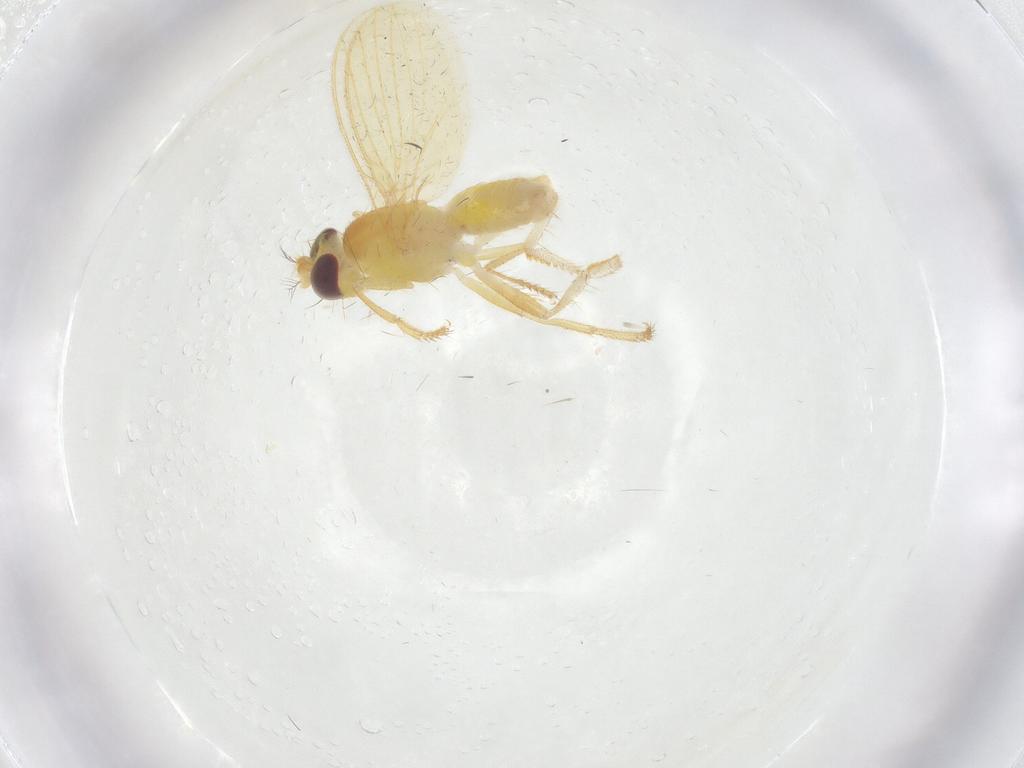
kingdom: Animalia
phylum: Arthropoda
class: Insecta
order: Diptera
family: Periscelididae
